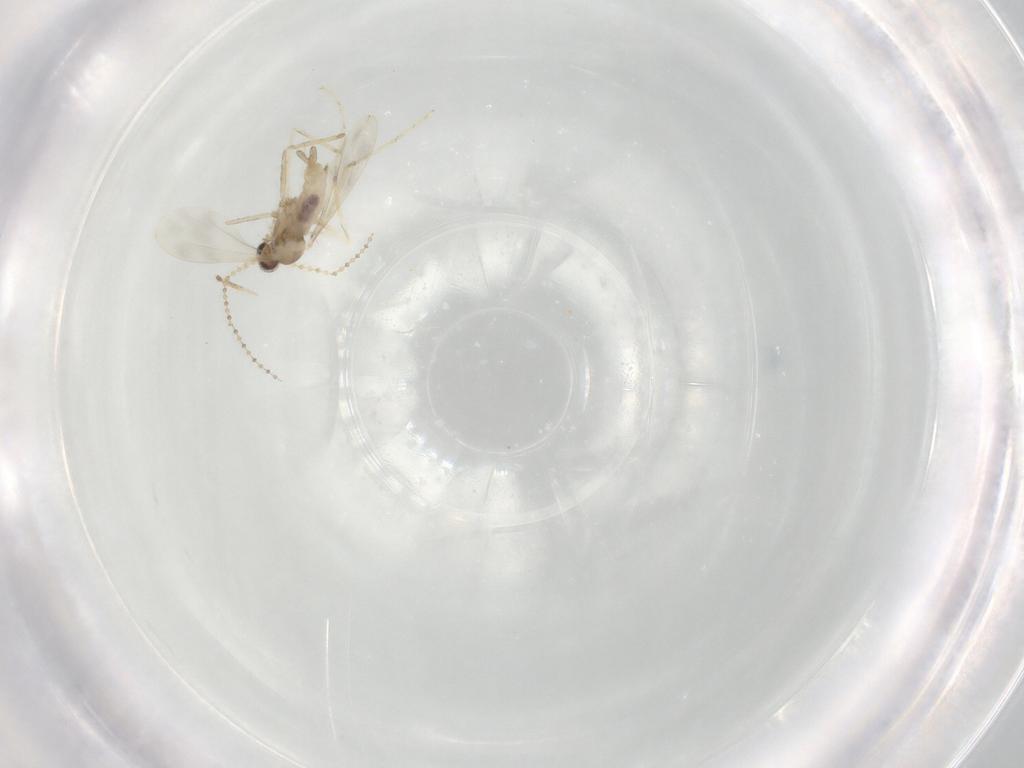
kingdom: Animalia
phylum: Arthropoda
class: Insecta
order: Diptera
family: Cecidomyiidae
